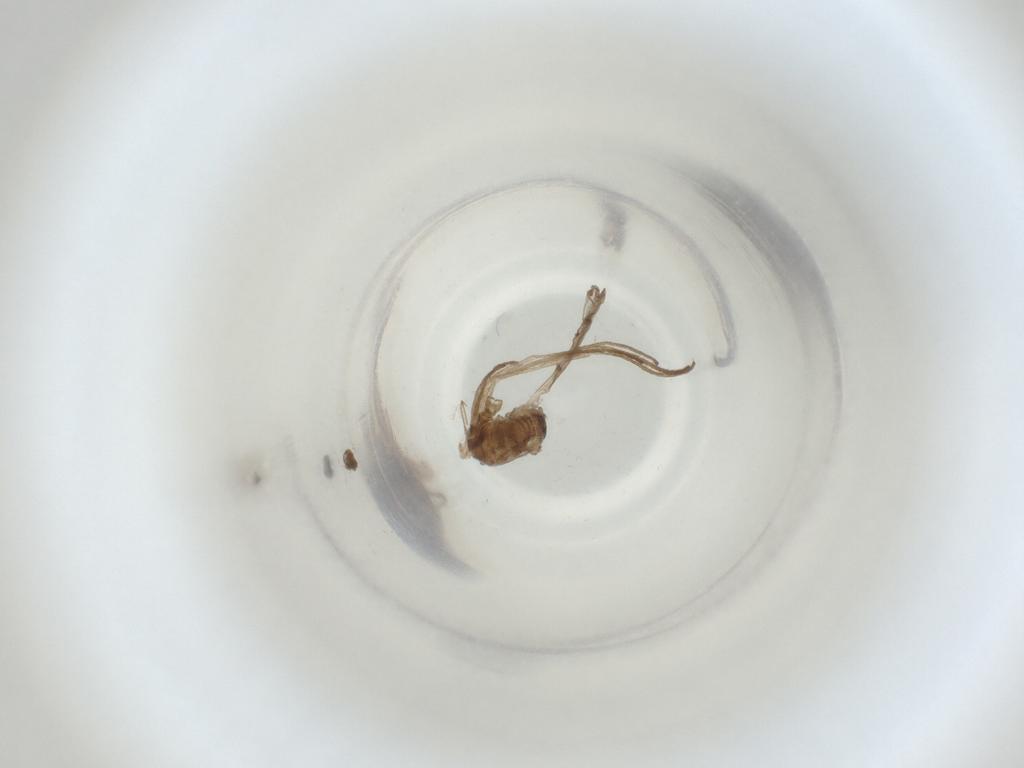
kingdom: Animalia
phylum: Arthropoda
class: Insecta
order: Diptera
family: Cecidomyiidae
